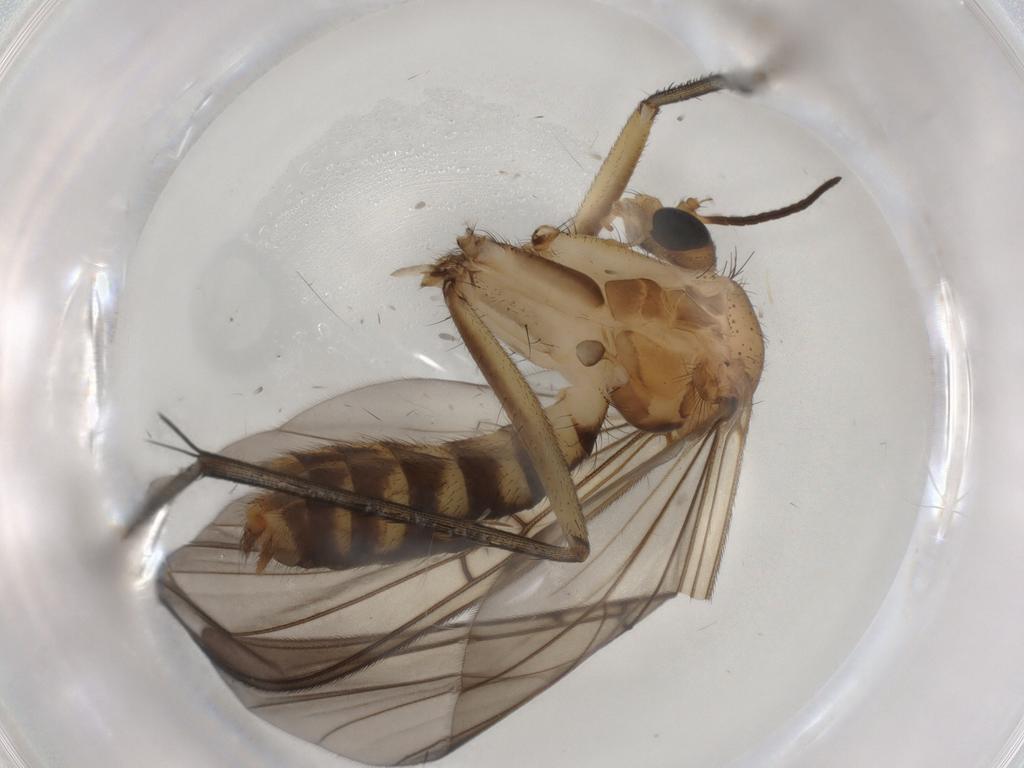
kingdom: Animalia
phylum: Arthropoda
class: Insecta
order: Diptera
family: Mycetophilidae
